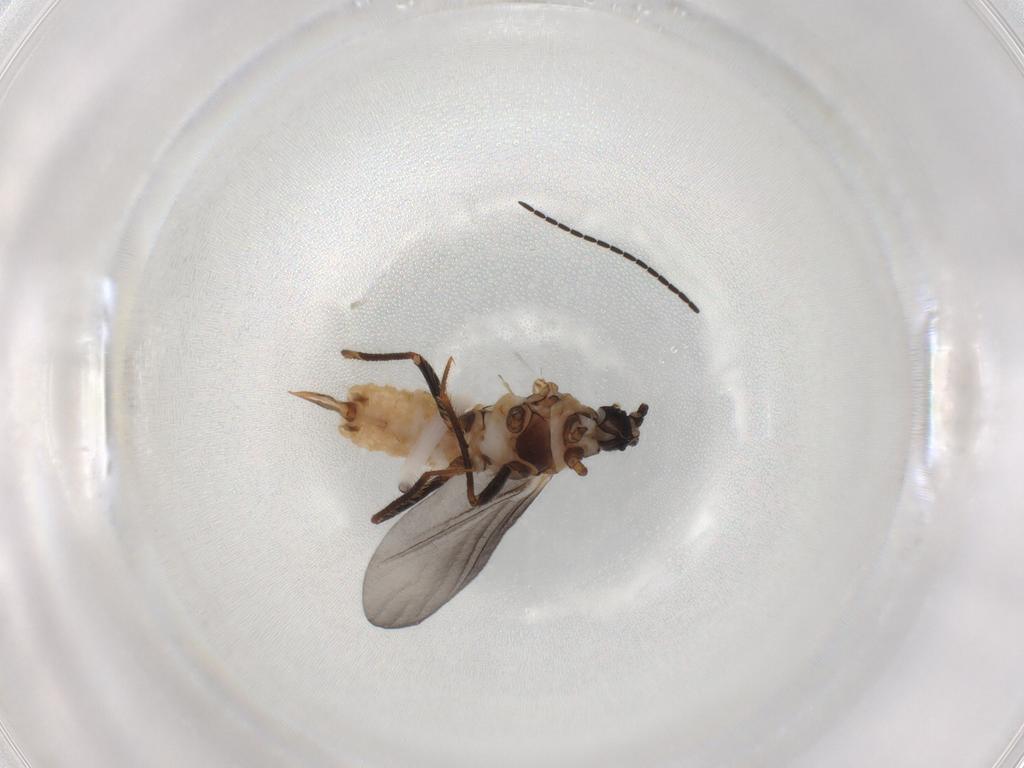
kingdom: Animalia
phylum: Arthropoda
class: Insecta
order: Hemiptera
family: Putoidae
